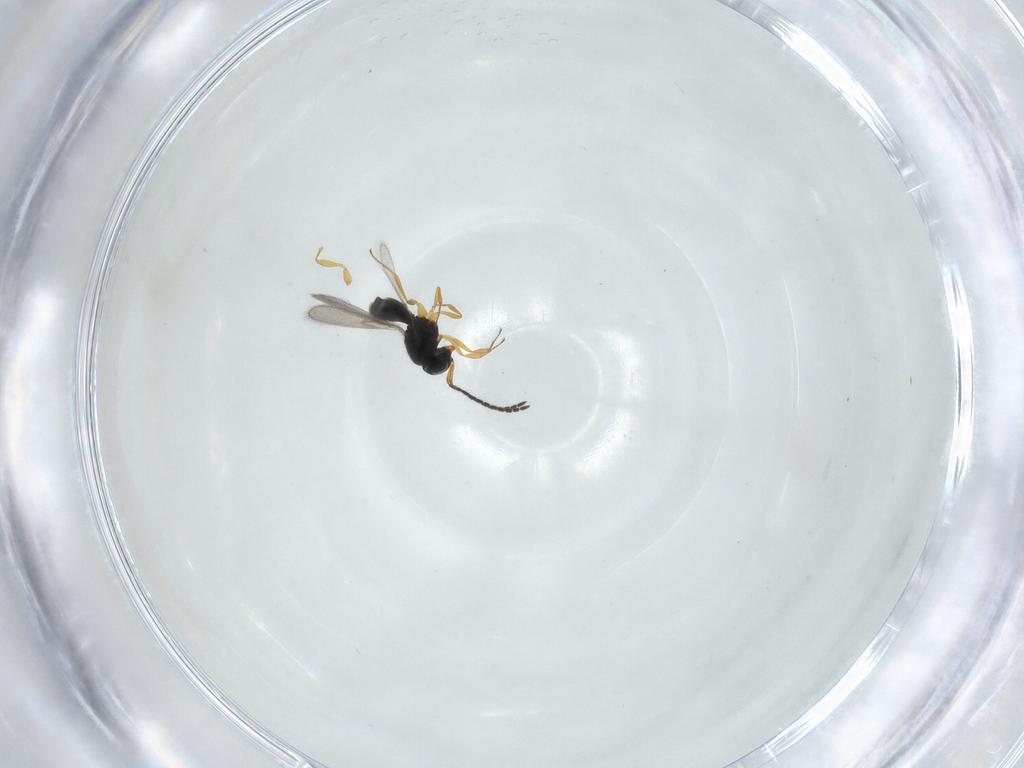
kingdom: Animalia
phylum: Arthropoda
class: Insecta
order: Hymenoptera
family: Scelionidae
